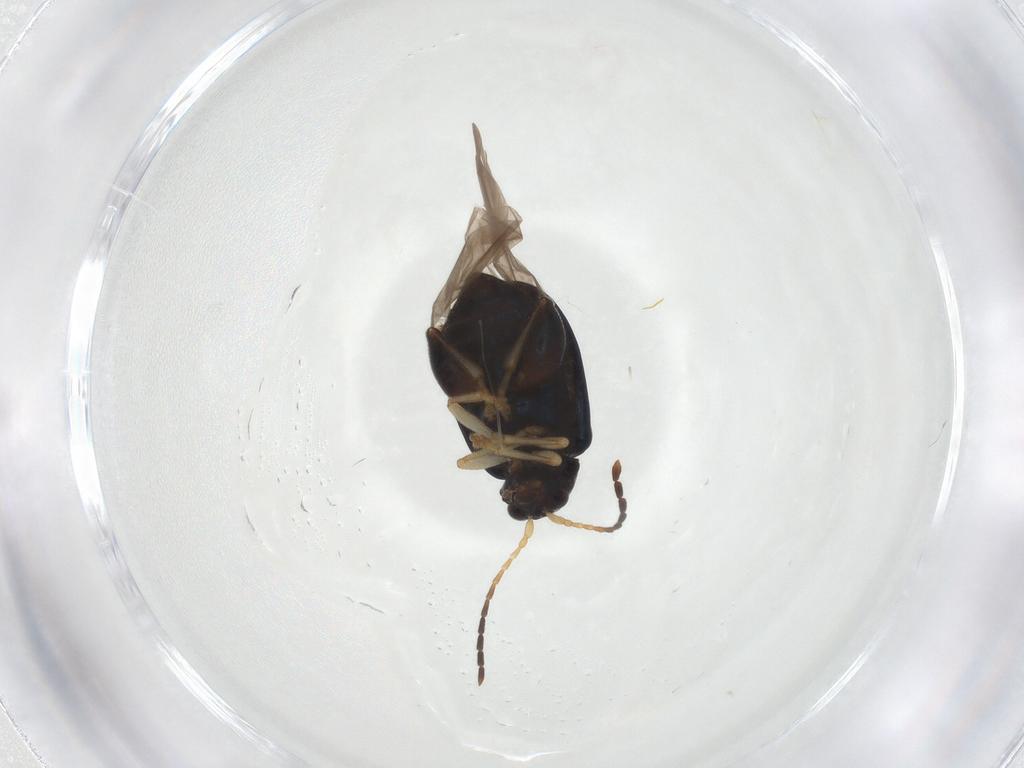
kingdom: Animalia
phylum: Arthropoda
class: Insecta
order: Coleoptera
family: Chrysomelidae
